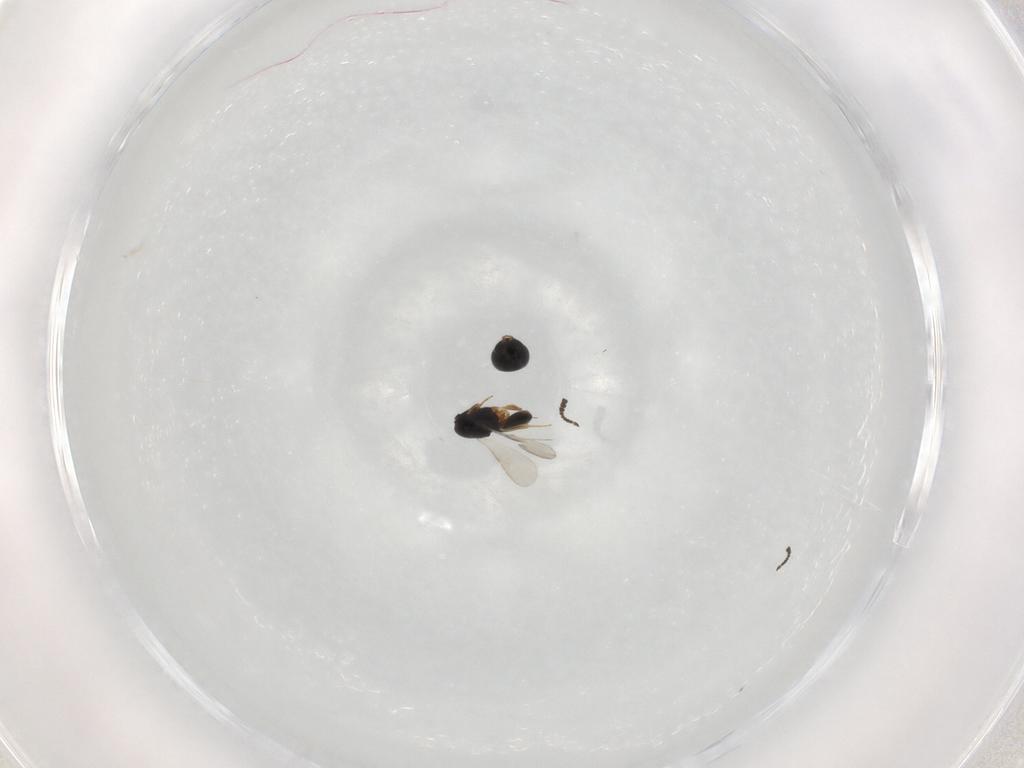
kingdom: Animalia
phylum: Arthropoda
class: Insecta
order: Hymenoptera
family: Scelionidae
